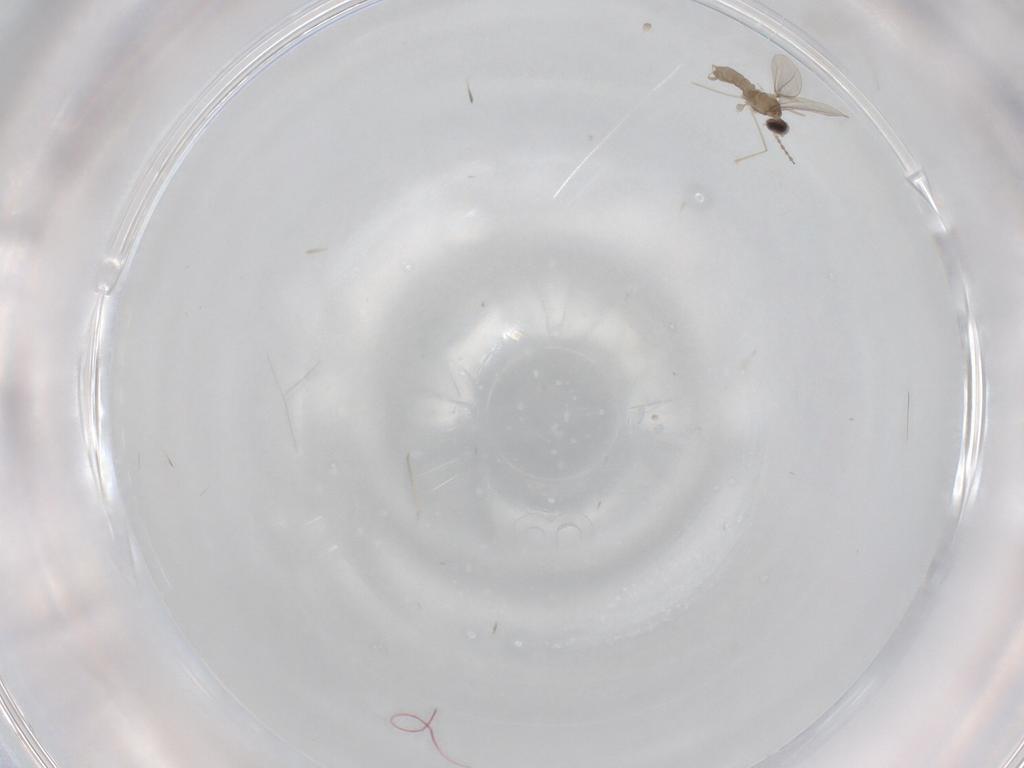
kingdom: Animalia
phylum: Arthropoda
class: Insecta
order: Diptera
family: Cecidomyiidae
